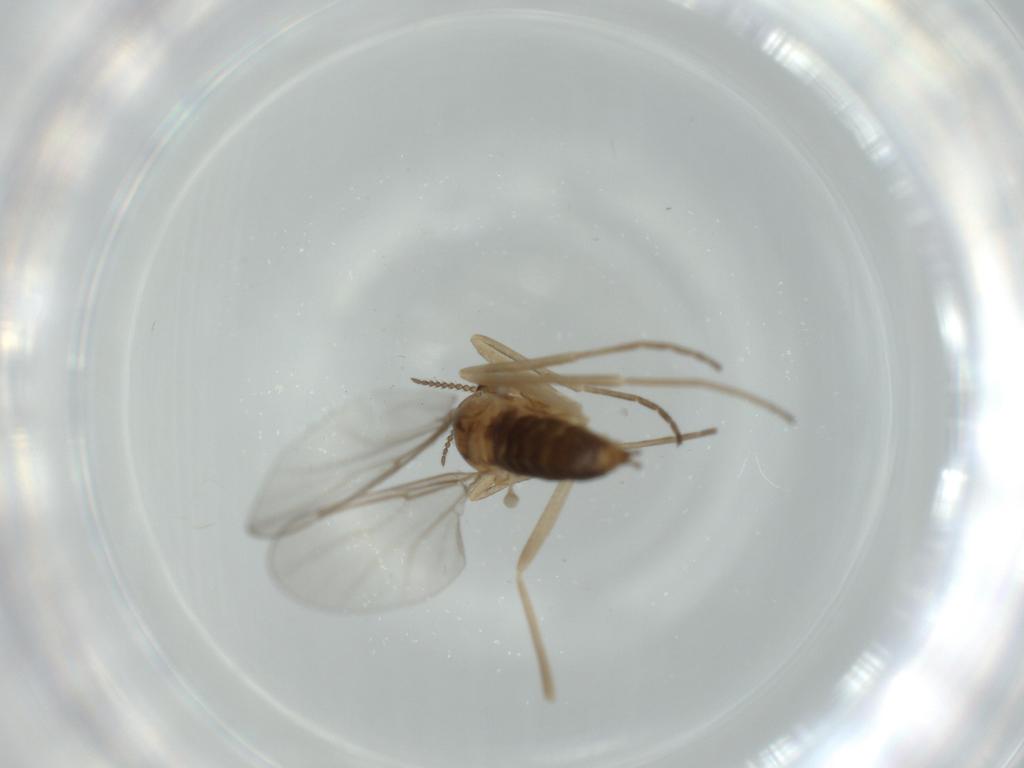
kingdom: Animalia
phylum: Arthropoda
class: Insecta
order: Diptera
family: Cecidomyiidae
